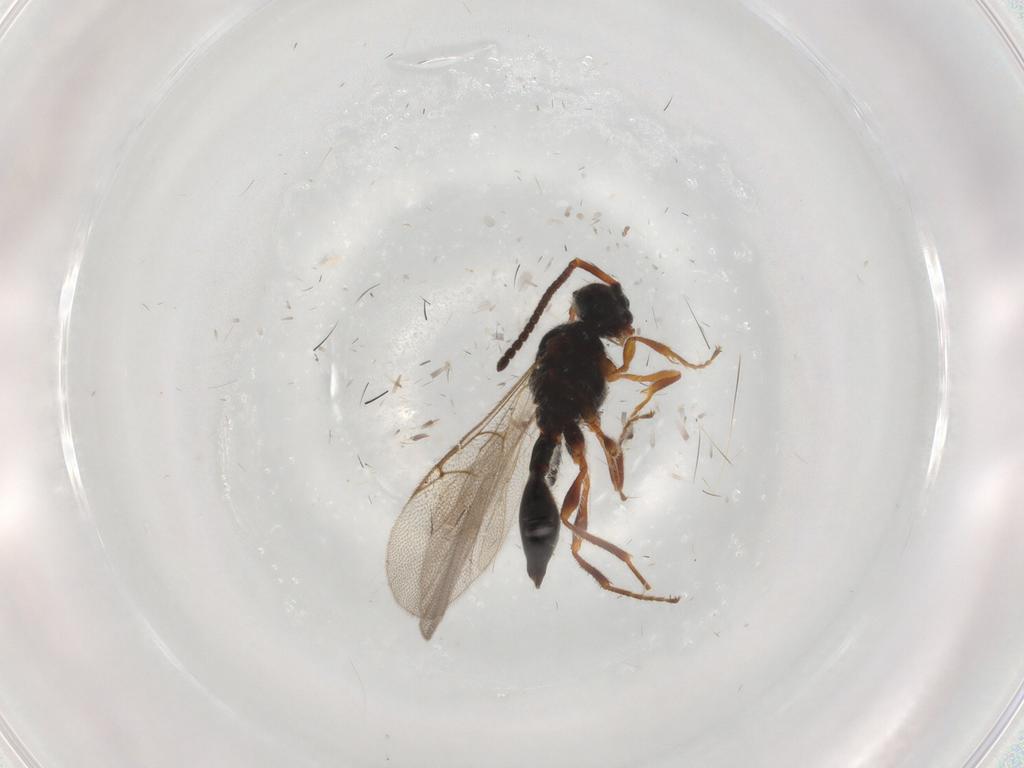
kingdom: Animalia
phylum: Arthropoda
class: Insecta
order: Hymenoptera
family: Diapriidae
